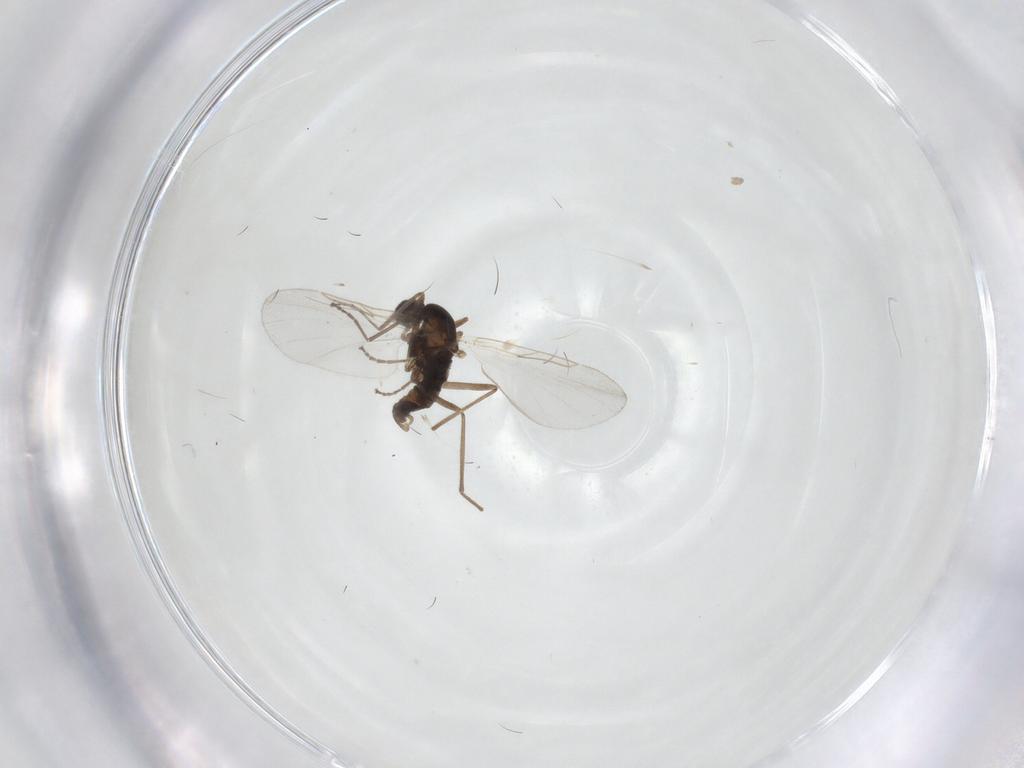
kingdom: Animalia
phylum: Arthropoda
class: Insecta
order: Diptera
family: Cecidomyiidae
